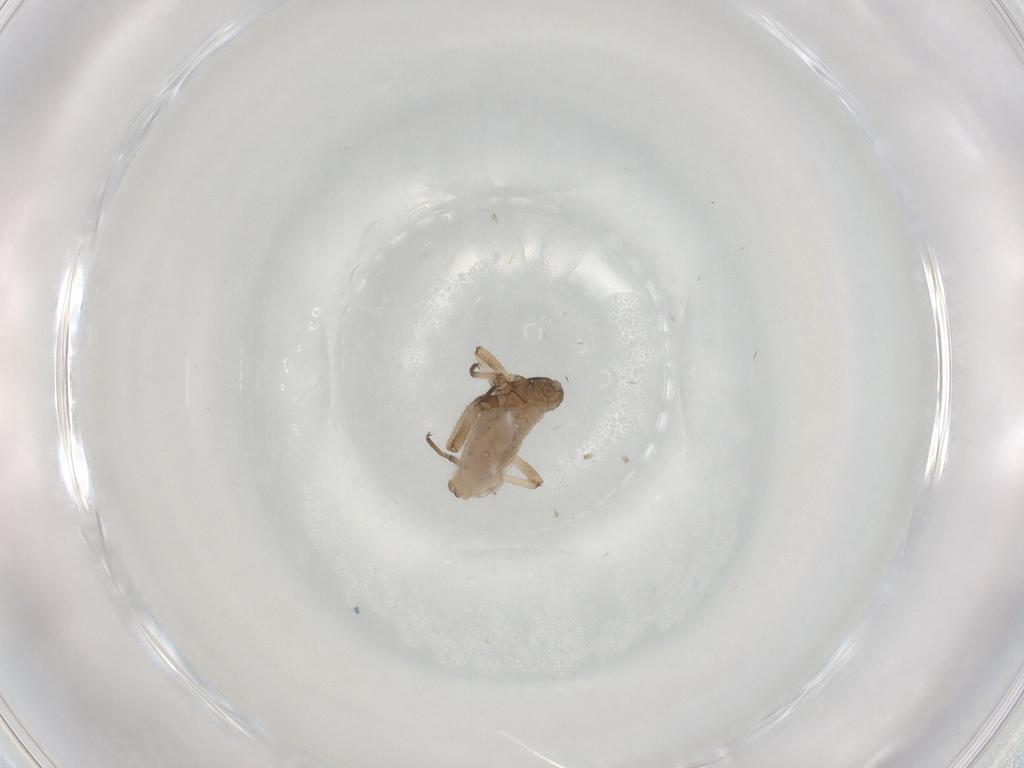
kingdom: Animalia
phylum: Arthropoda
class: Insecta
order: Hemiptera
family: Aphididae
